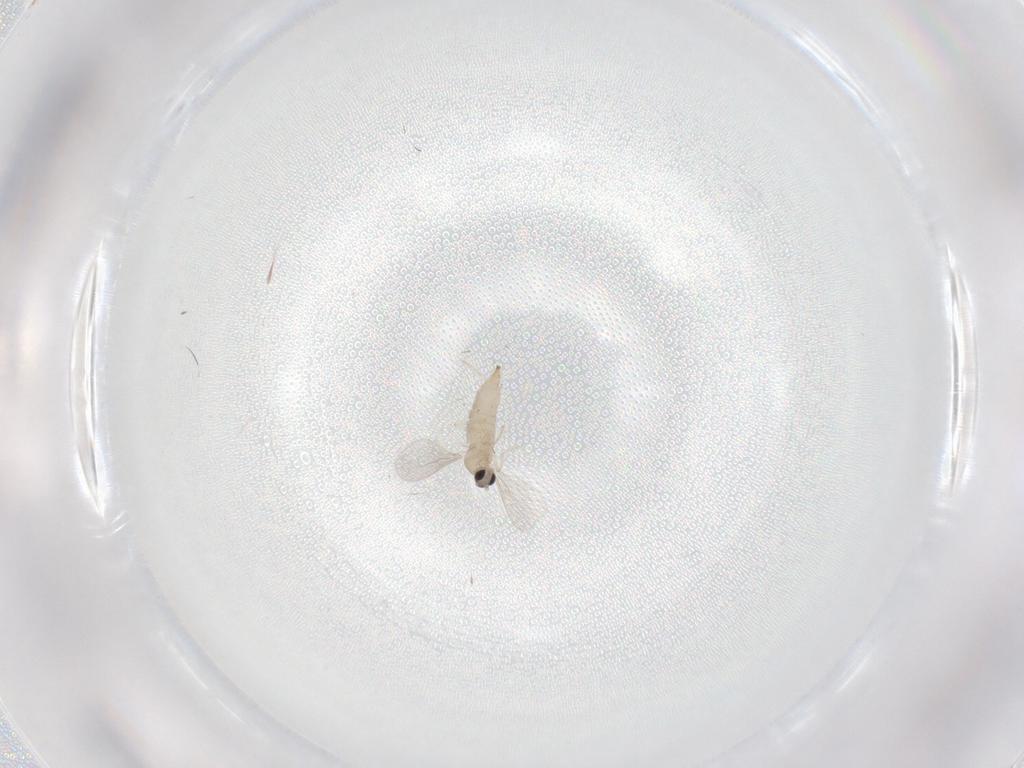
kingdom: Animalia
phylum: Arthropoda
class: Insecta
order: Diptera
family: Cecidomyiidae
